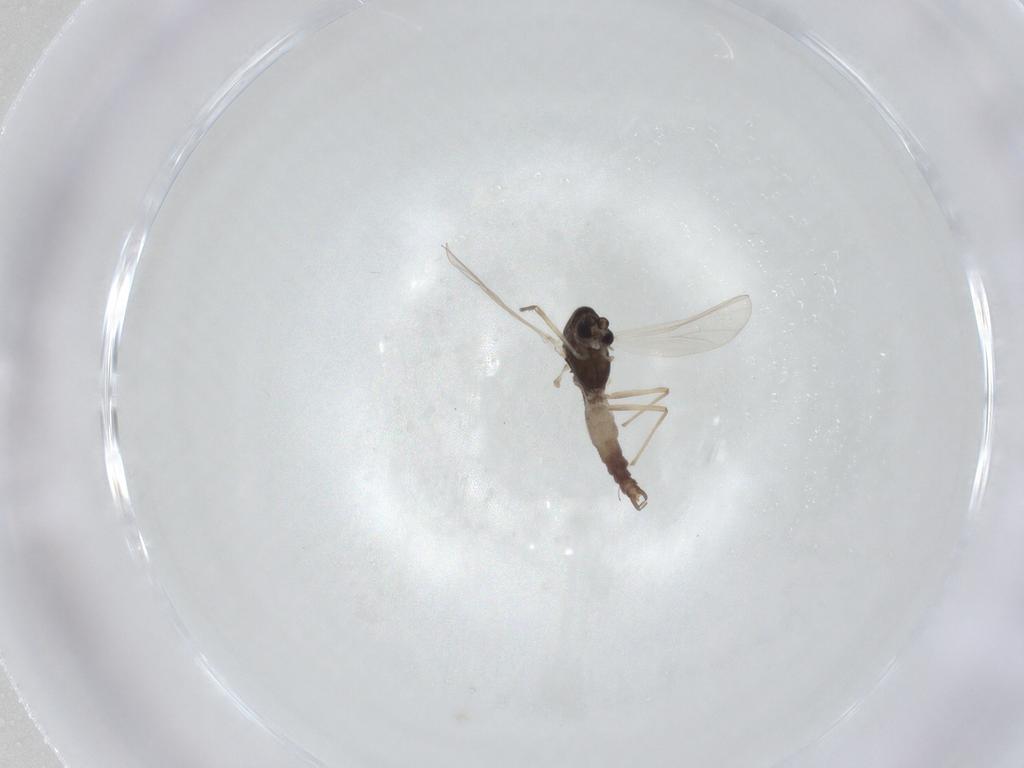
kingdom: Animalia
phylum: Arthropoda
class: Insecta
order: Diptera
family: Chironomidae
